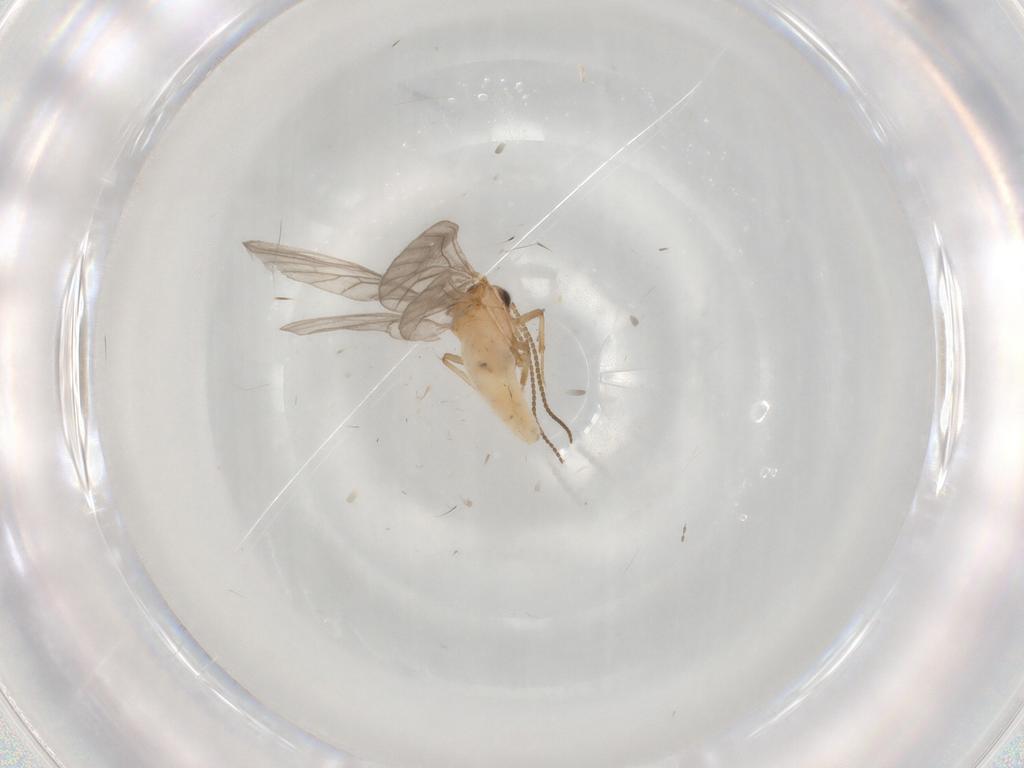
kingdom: Animalia
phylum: Arthropoda
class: Insecta
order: Neuroptera
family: Coniopterygidae
